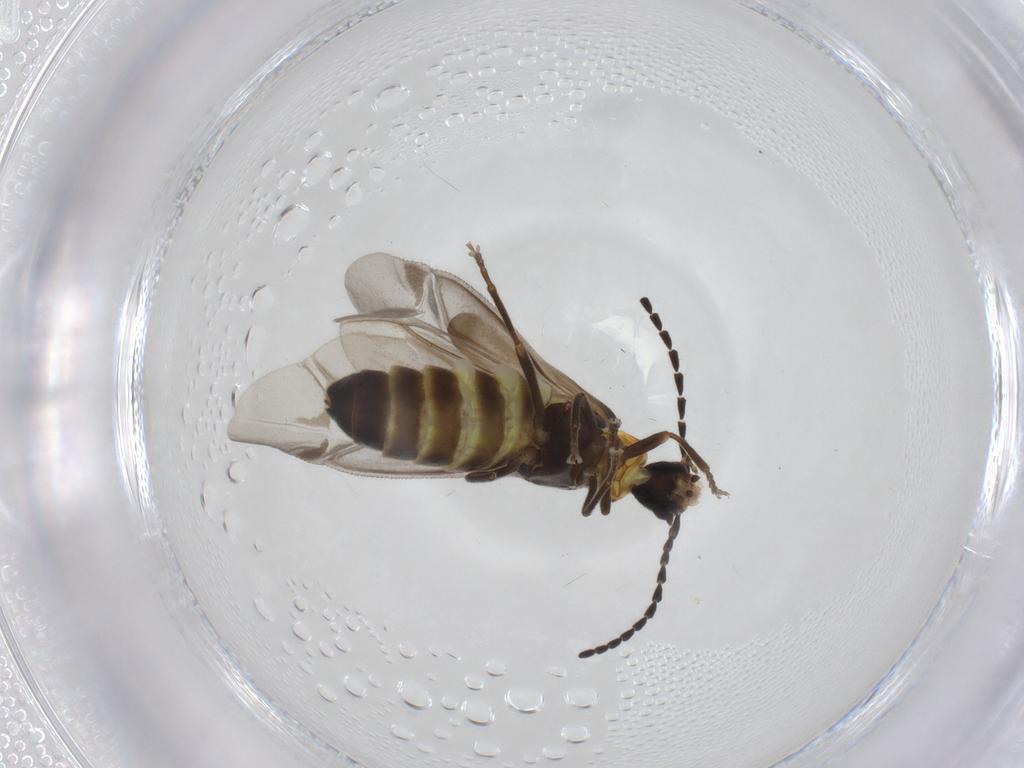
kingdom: Animalia
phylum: Arthropoda
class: Insecta
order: Coleoptera
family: Cantharidae
